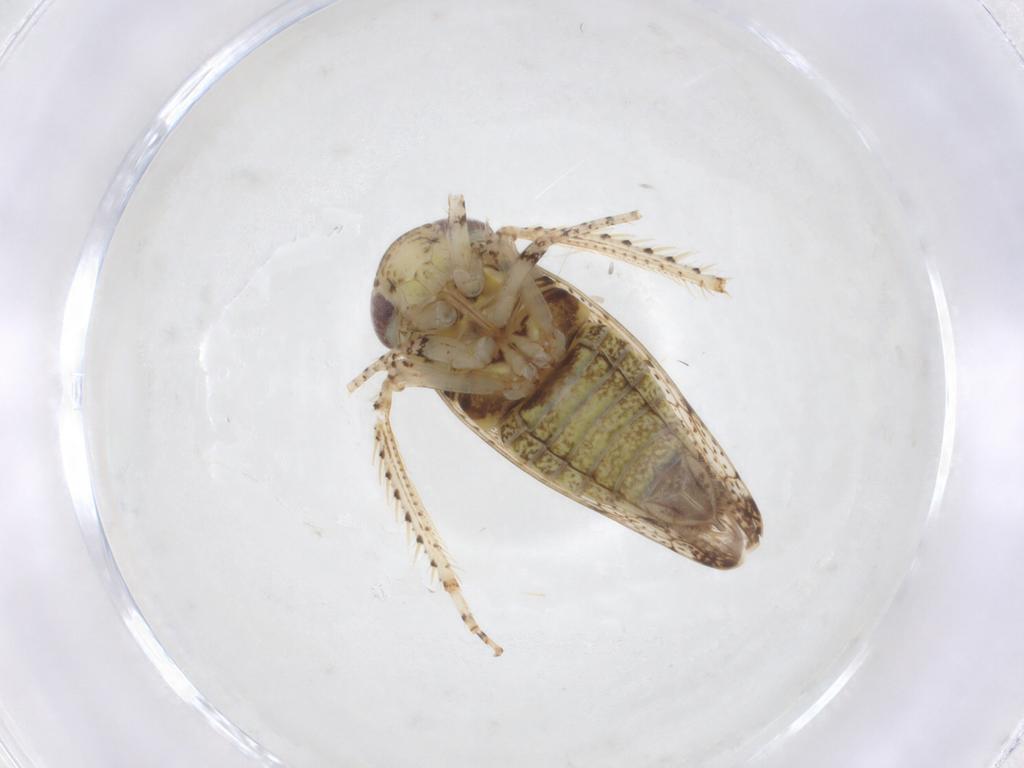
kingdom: Animalia
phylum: Arthropoda
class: Insecta
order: Hemiptera
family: Cicadellidae
